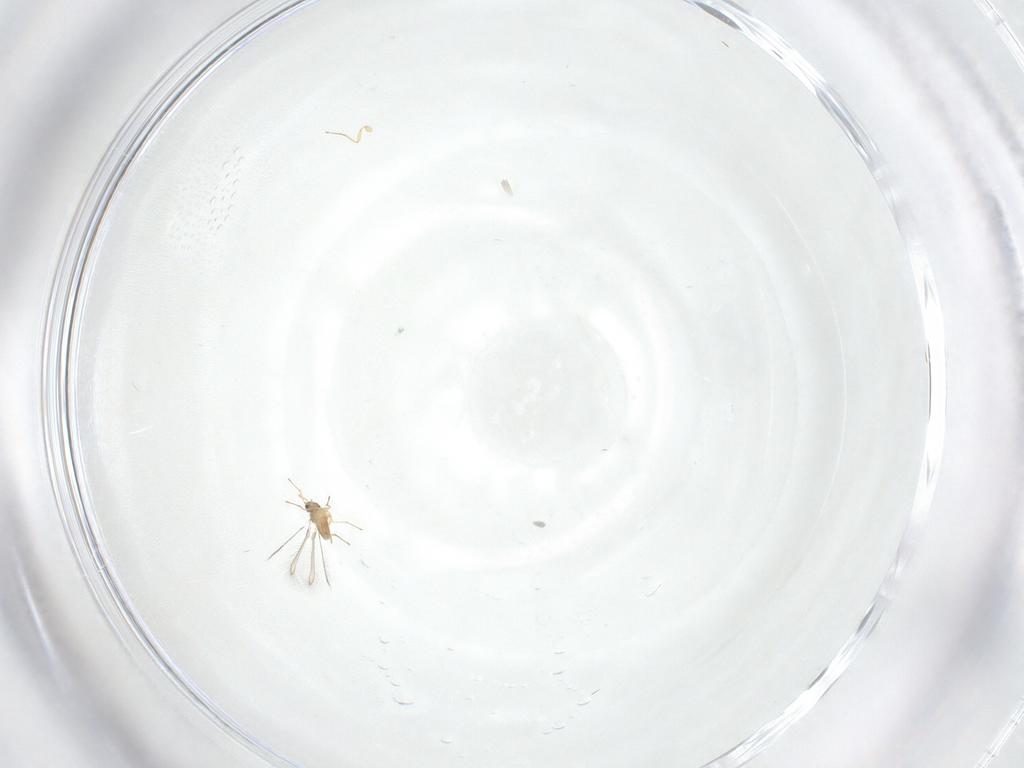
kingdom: Animalia
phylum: Arthropoda
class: Insecta
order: Hymenoptera
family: Mymaridae
